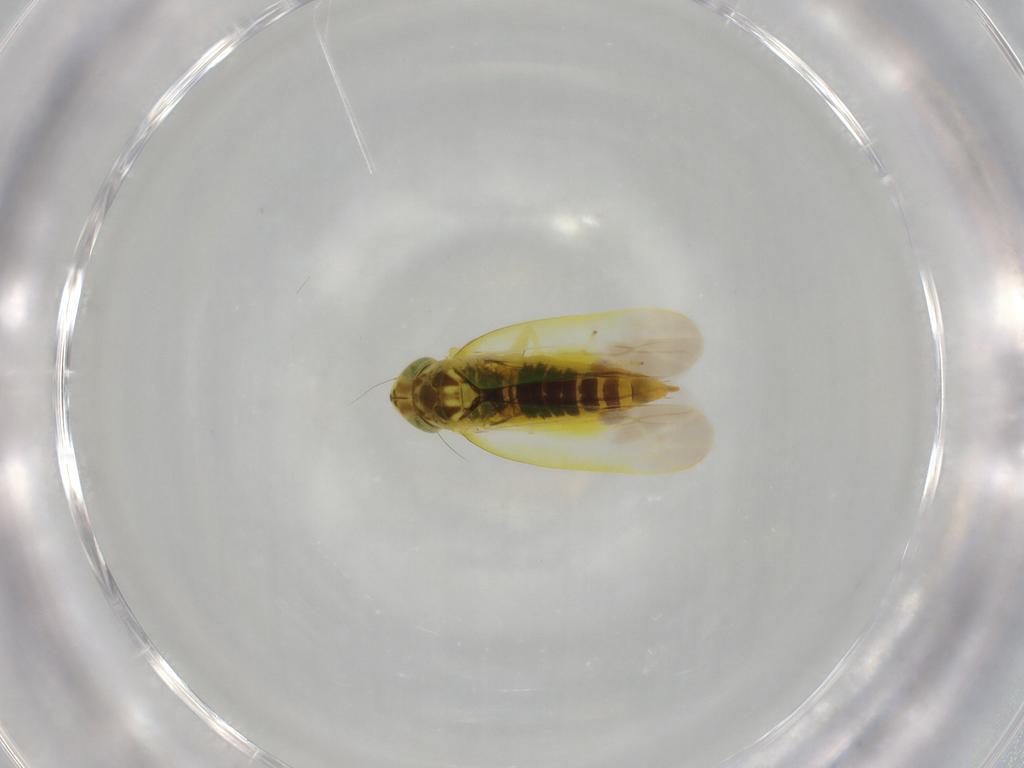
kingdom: Animalia
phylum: Arthropoda
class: Insecta
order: Hemiptera
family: Cicadellidae
